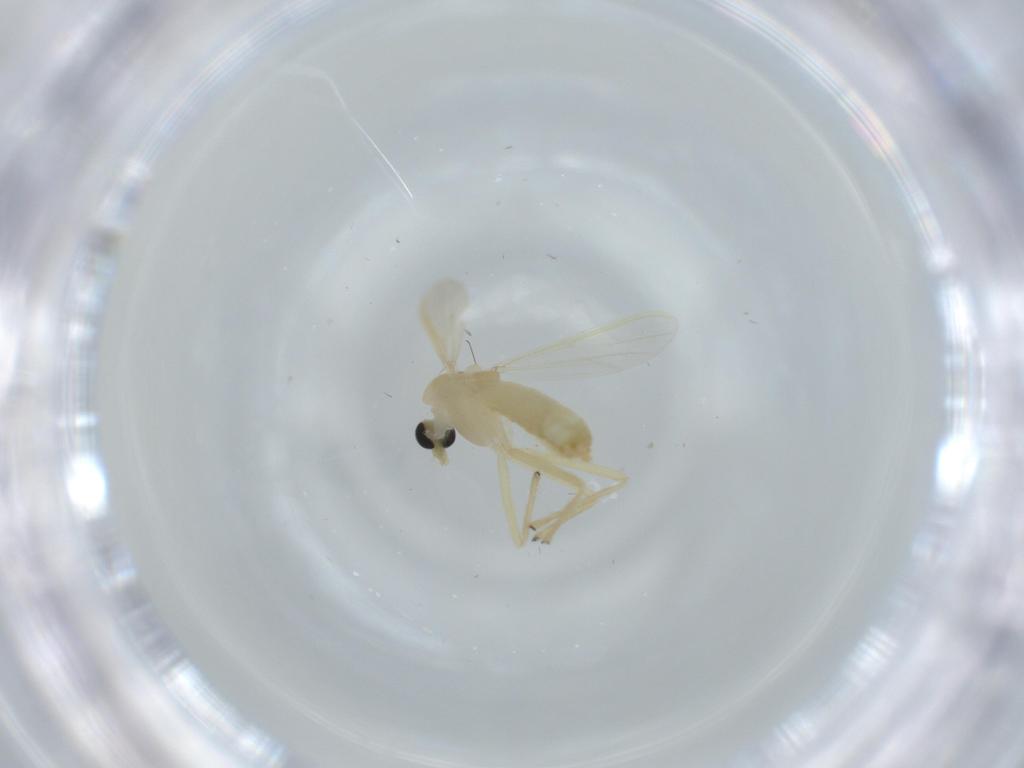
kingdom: Animalia
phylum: Arthropoda
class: Insecta
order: Diptera
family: Chironomidae
